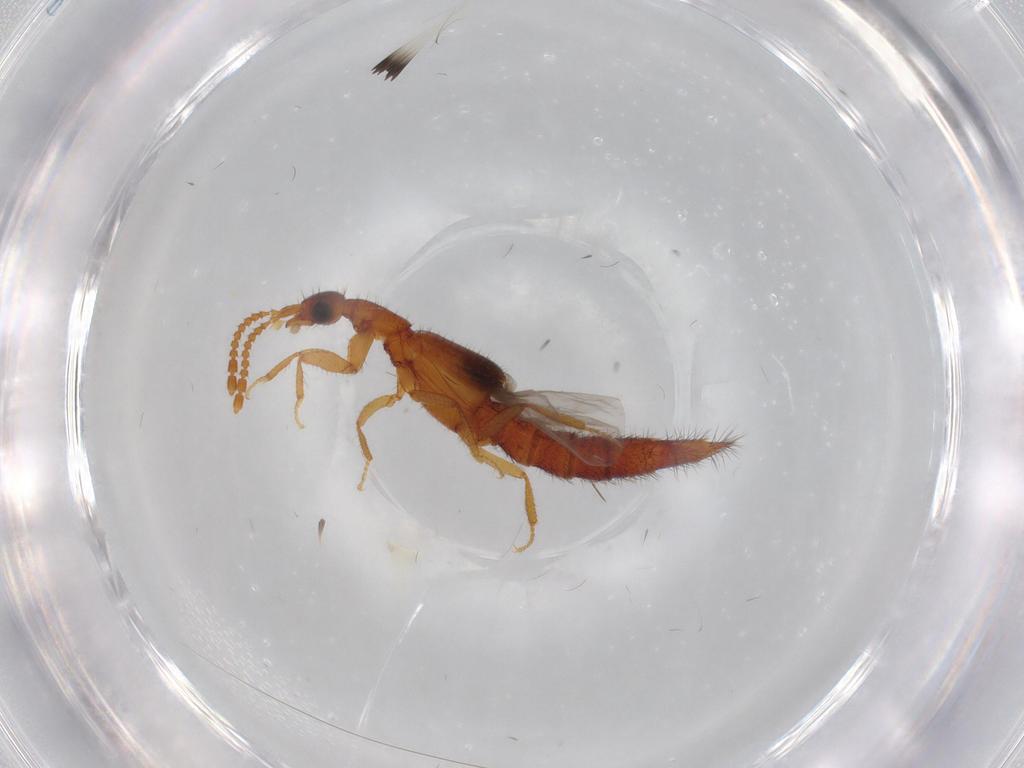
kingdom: Animalia
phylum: Arthropoda
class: Insecta
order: Coleoptera
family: Staphylinidae
